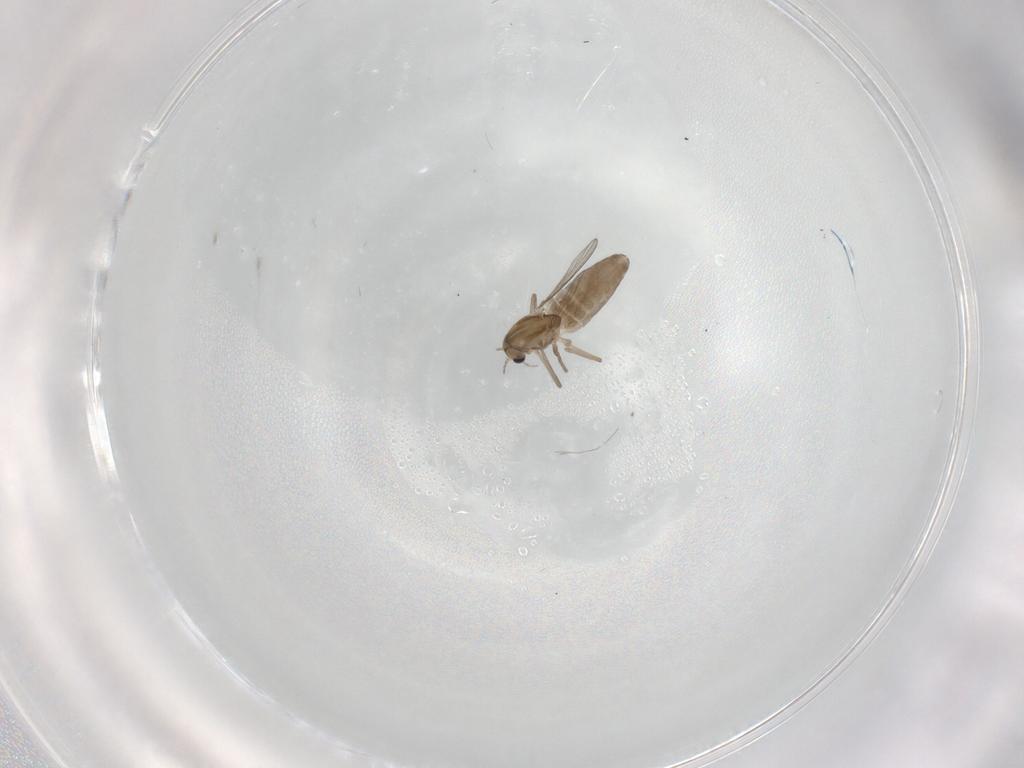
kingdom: Animalia
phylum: Arthropoda
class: Insecta
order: Diptera
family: Chironomidae
